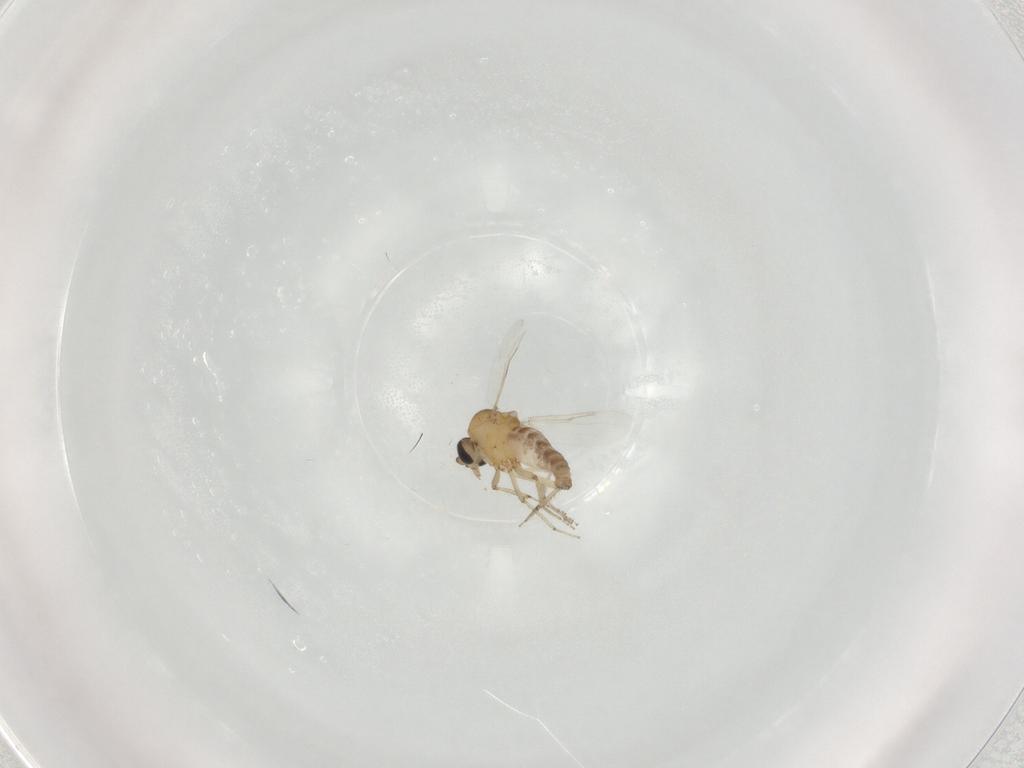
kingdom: Animalia
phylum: Arthropoda
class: Insecta
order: Diptera
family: Ceratopogonidae
